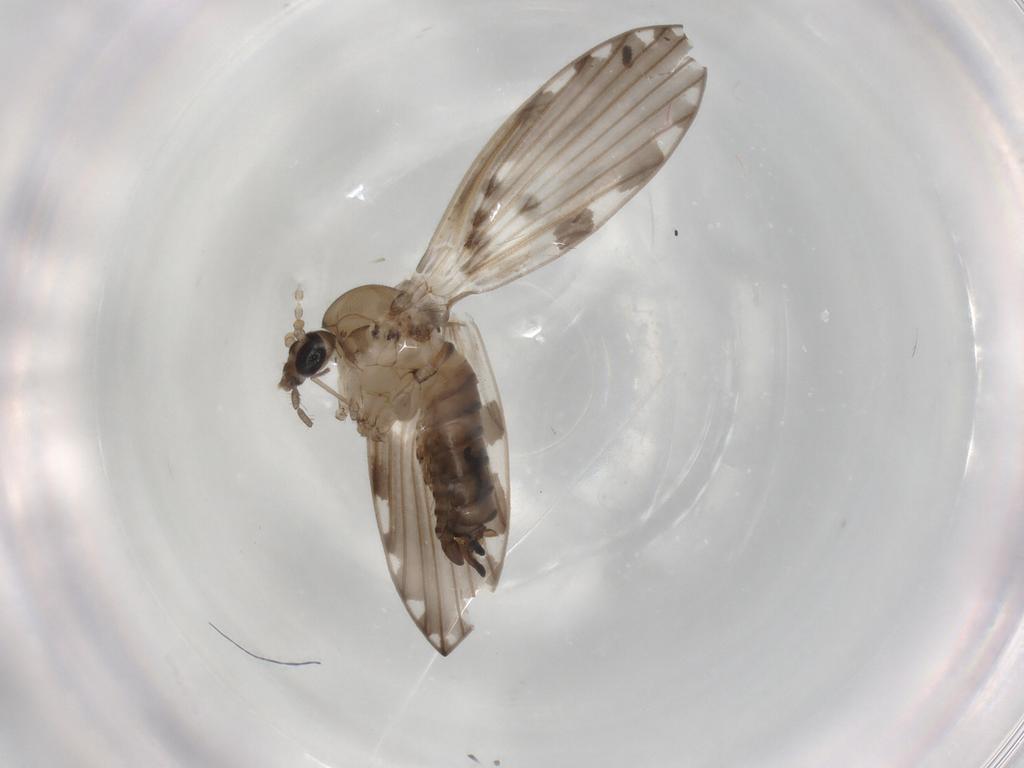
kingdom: Animalia
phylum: Arthropoda
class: Insecta
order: Diptera
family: Psychodidae
